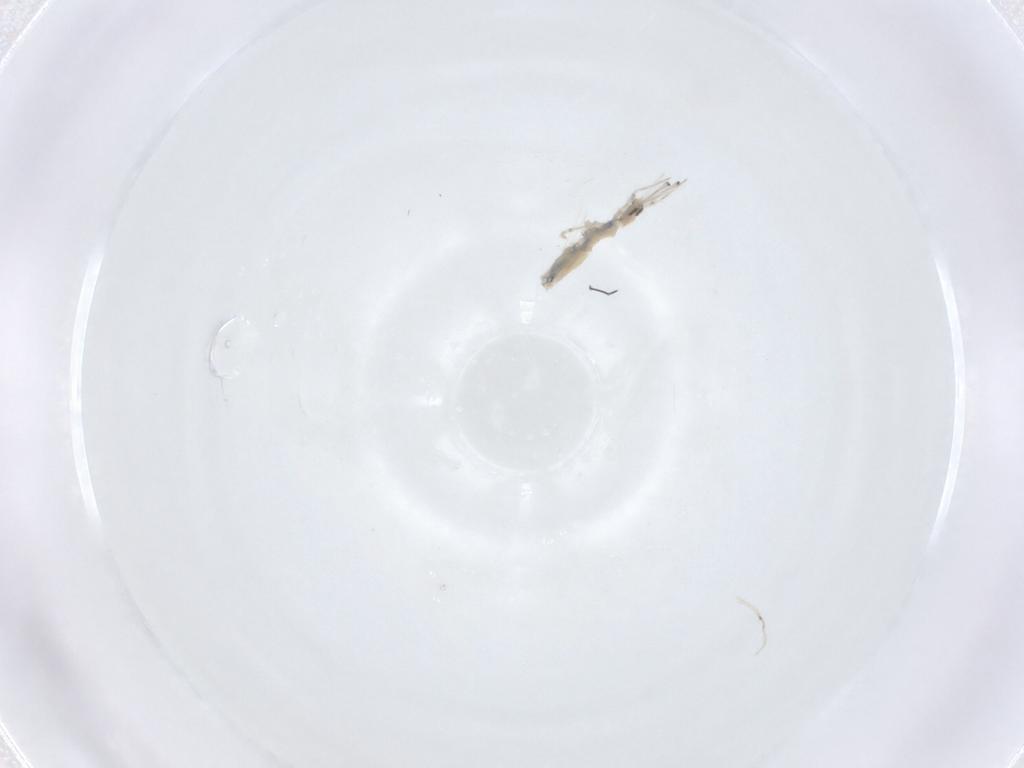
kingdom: Animalia
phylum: Arthropoda
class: Collembola
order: Entomobryomorpha
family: Paronellidae
